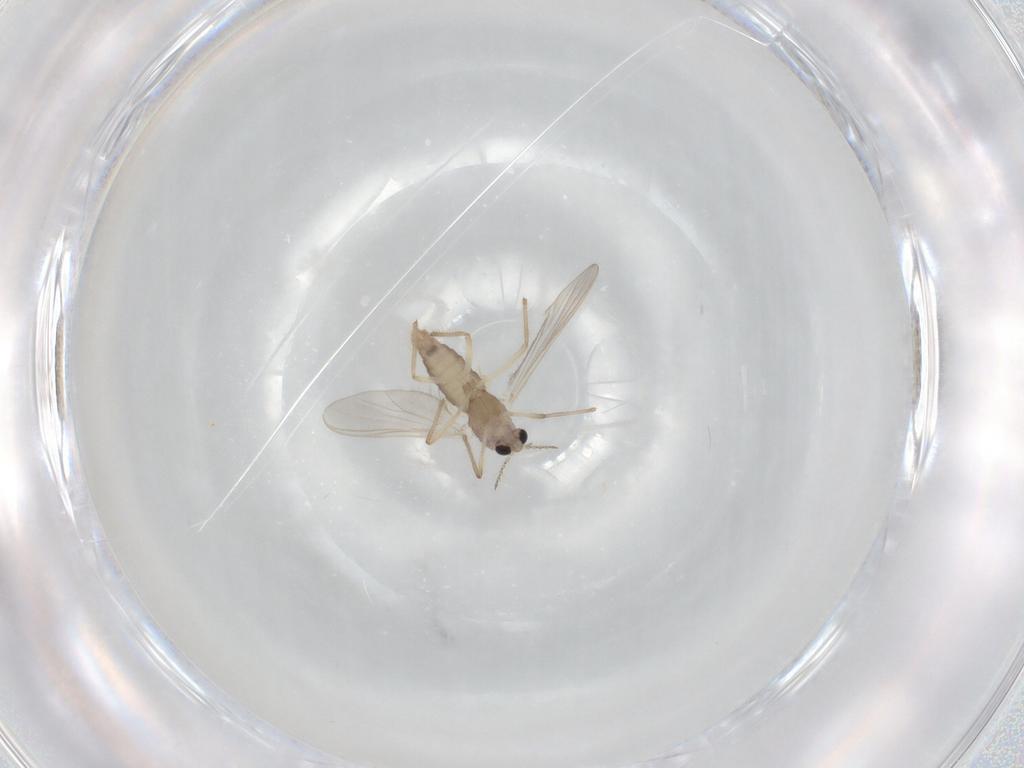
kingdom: Animalia
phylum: Arthropoda
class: Insecta
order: Diptera
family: Chironomidae
